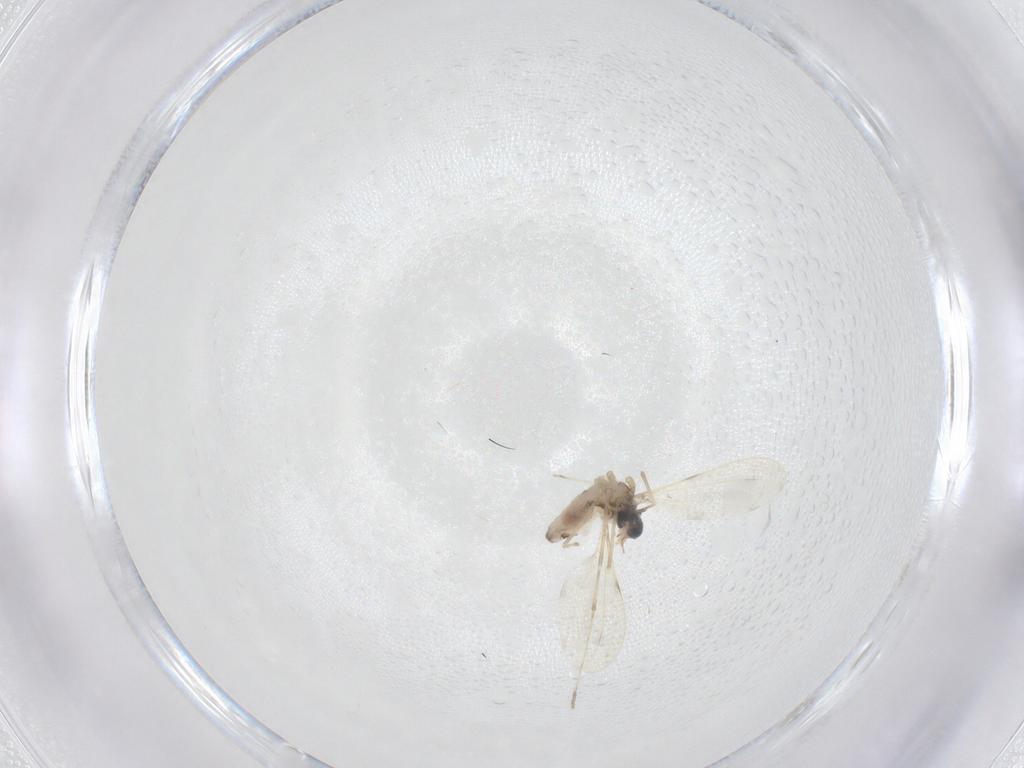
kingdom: Animalia
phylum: Arthropoda
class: Insecta
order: Diptera
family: Chironomidae
